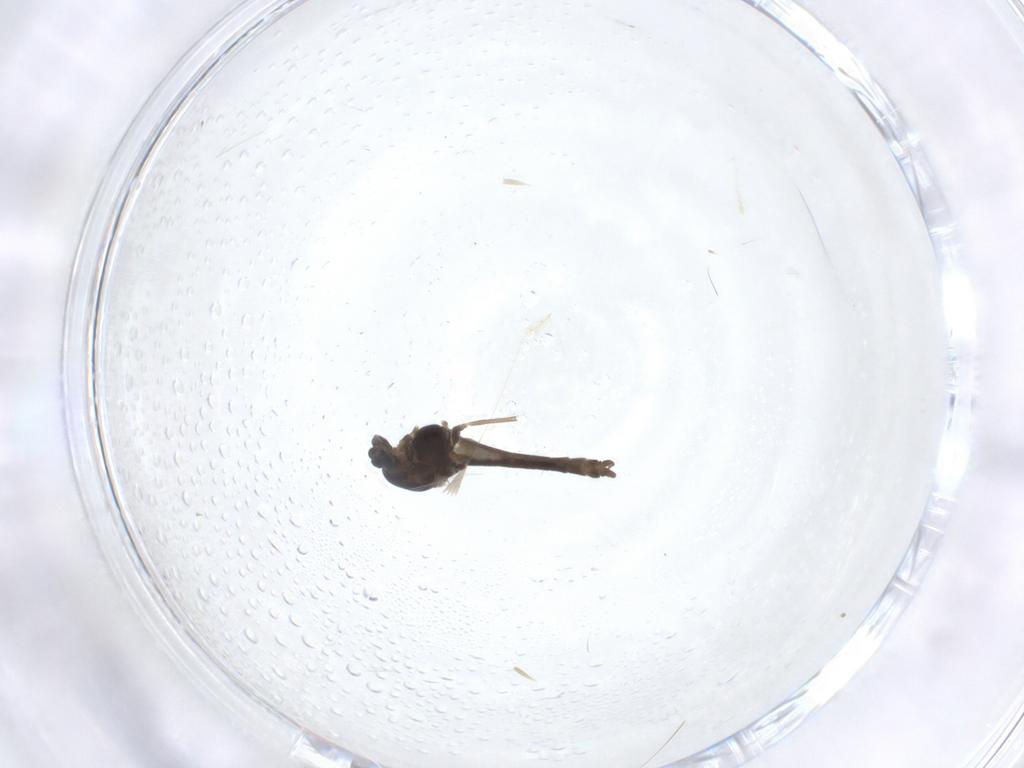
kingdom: Animalia
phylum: Arthropoda
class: Insecta
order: Diptera
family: Chironomidae
